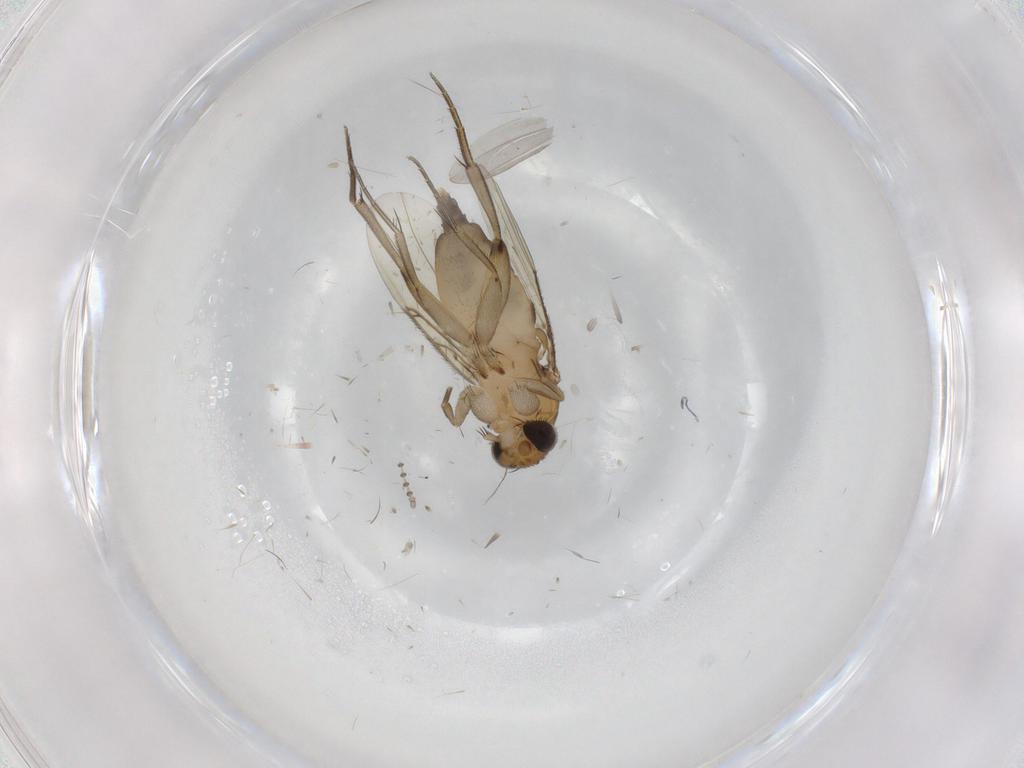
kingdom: Animalia
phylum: Arthropoda
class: Insecta
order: Diptera
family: Phoridae
